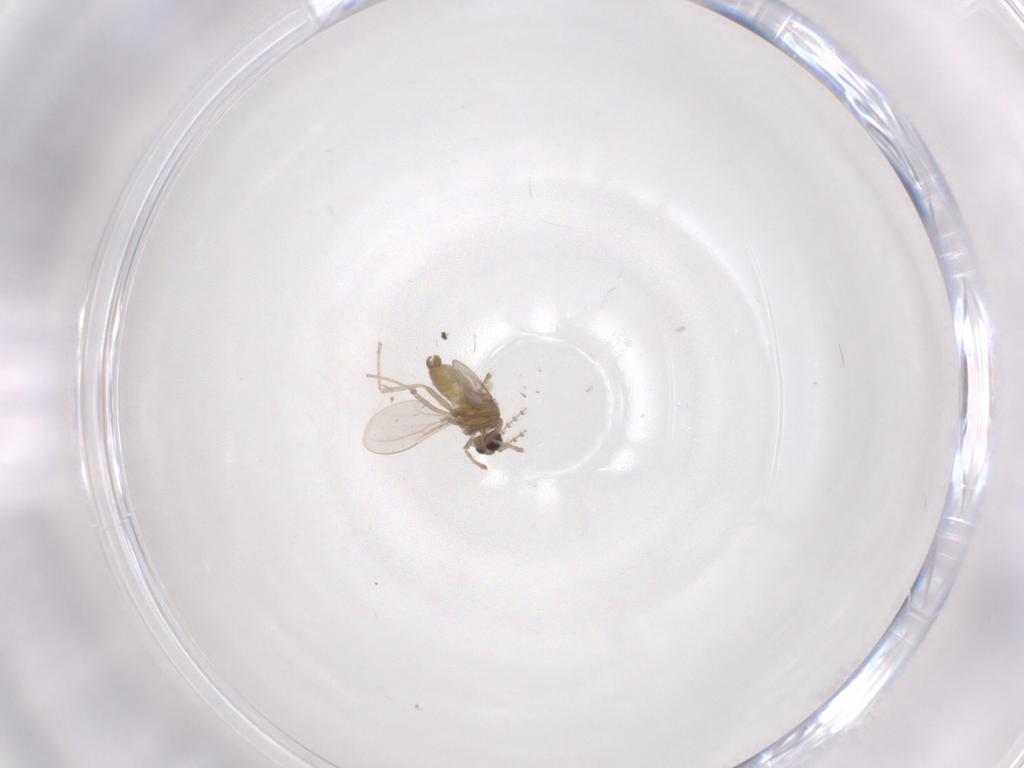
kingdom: Animalia
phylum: Arthropoda
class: Insecta
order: Diptera
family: Cecidomyiidae
